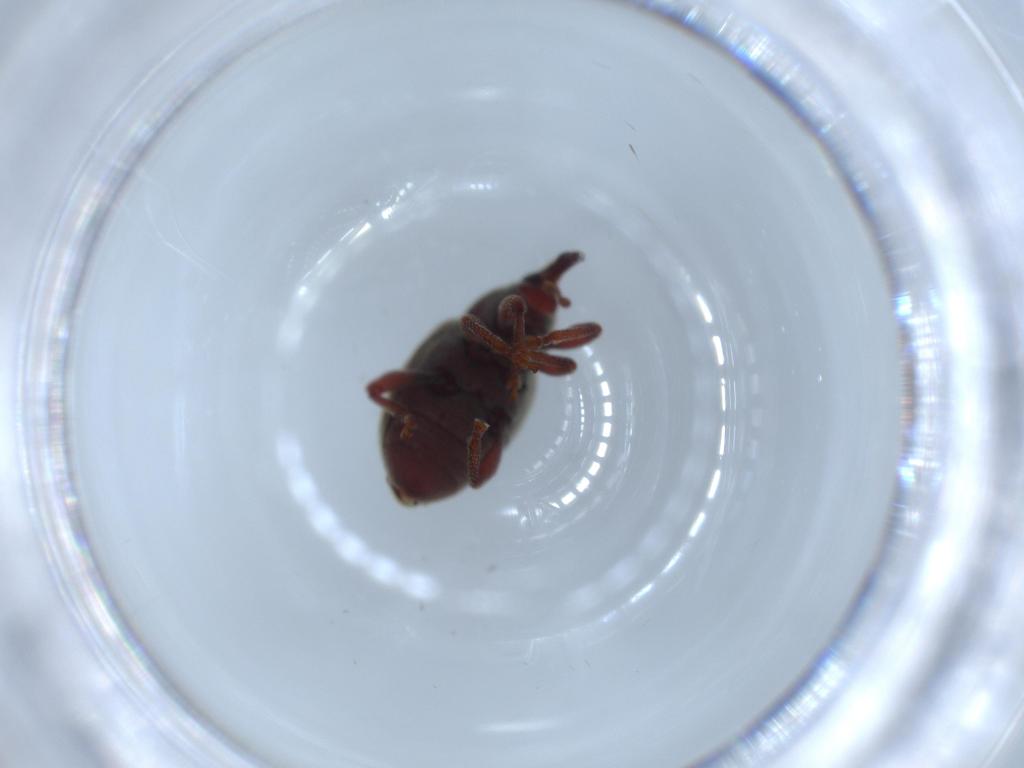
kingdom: Animalia
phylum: Arthropoda
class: Insecta
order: Coleoptera
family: Curculionidae
